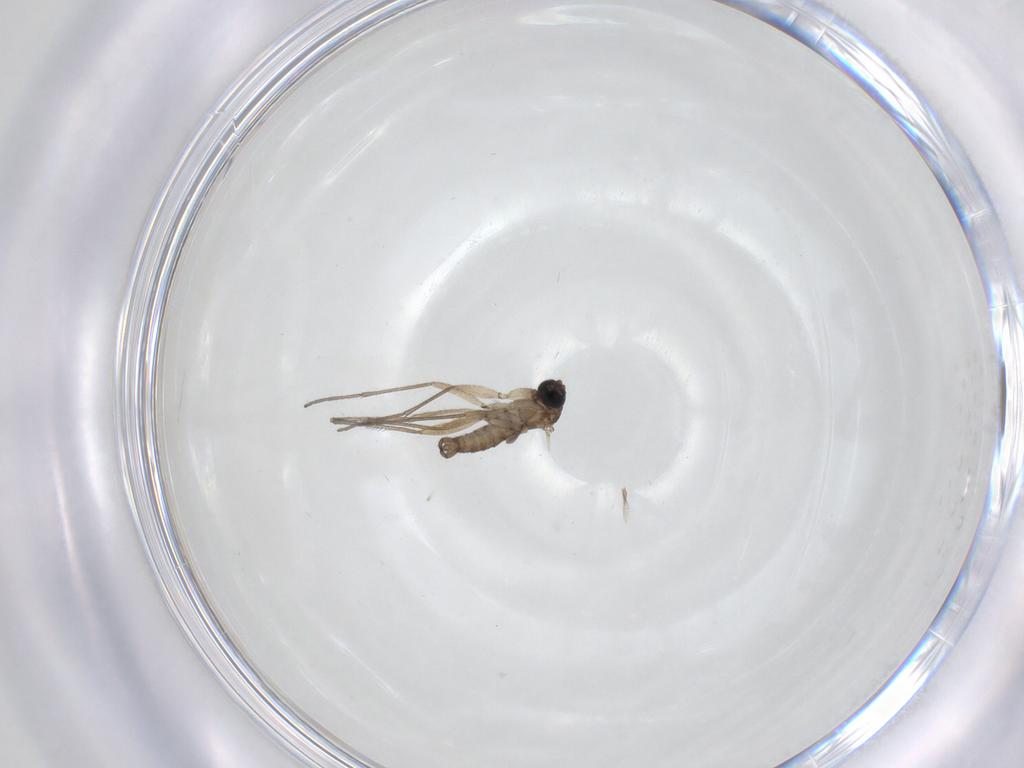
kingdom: Animalia
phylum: Arthropoda
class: Insecta
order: Diptera
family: Sciaridae
